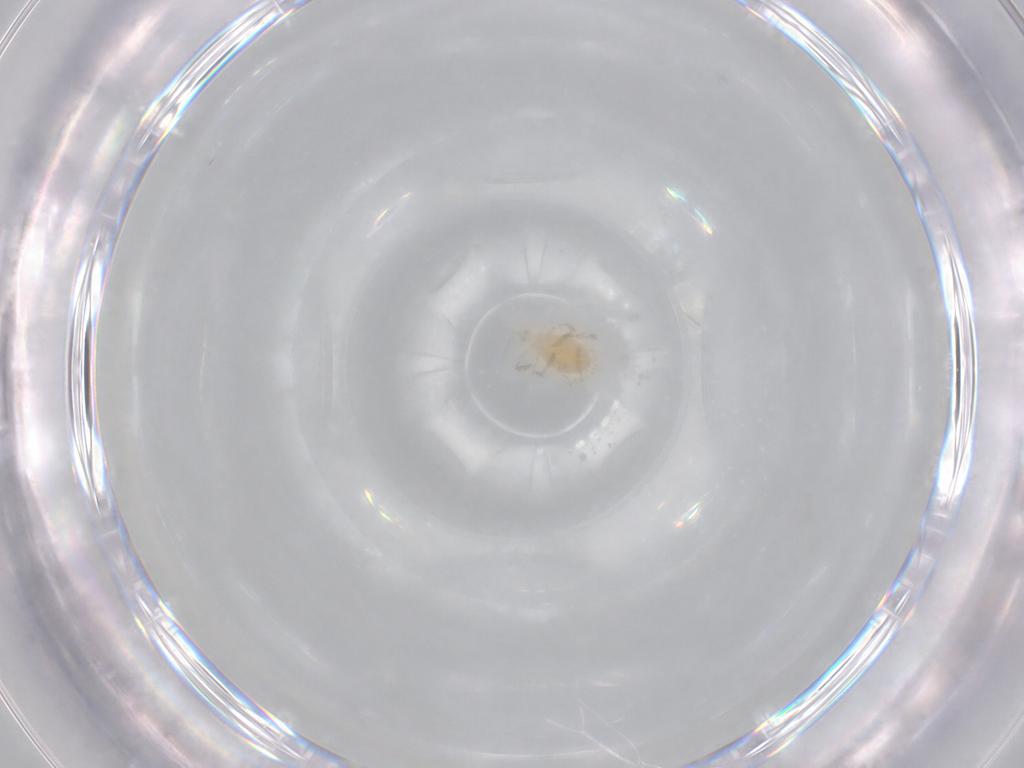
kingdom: Animalia
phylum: Arthropoda
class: Arachnida
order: Trombidiformes
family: Erythraeidae
